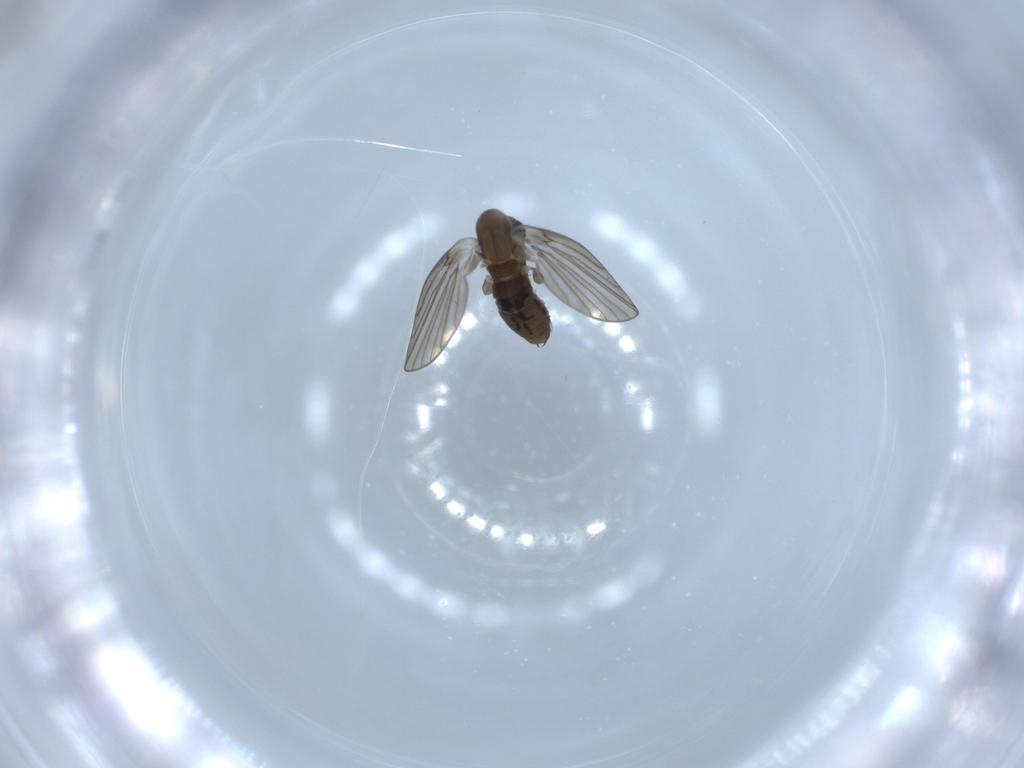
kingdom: Animalia
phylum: Arthropoda
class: Insecta
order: Diptera
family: Psychodidae
